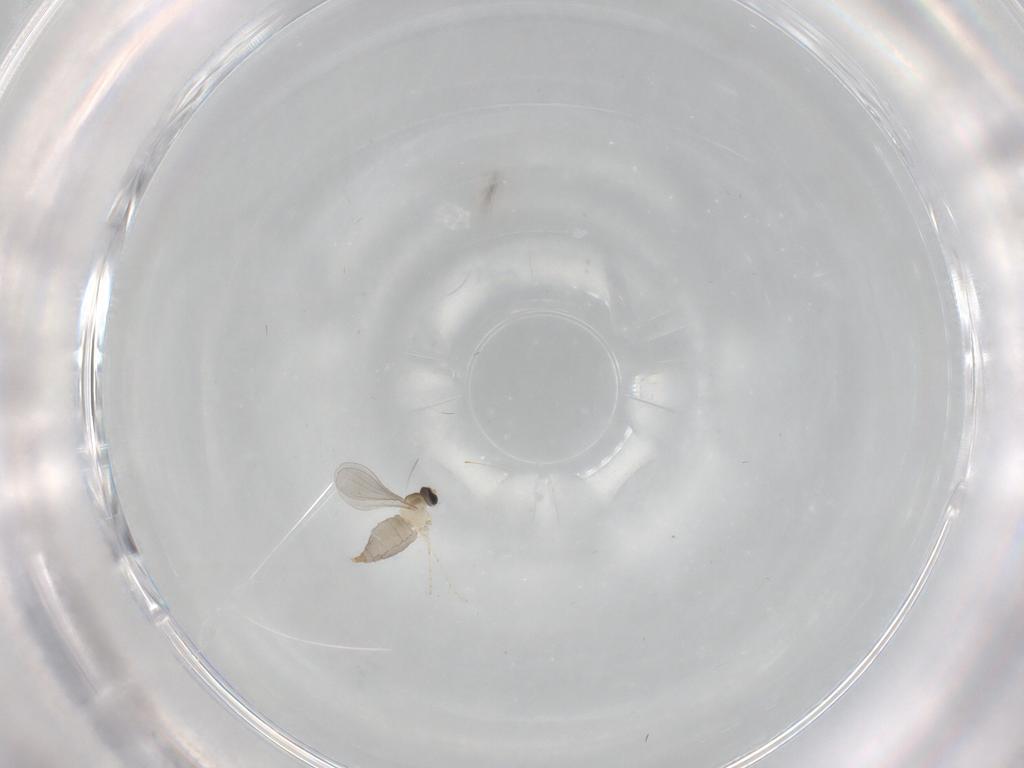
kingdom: Animalia
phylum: Arthropoda
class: Insecta
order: Diptera
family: Cecidomyiidae
